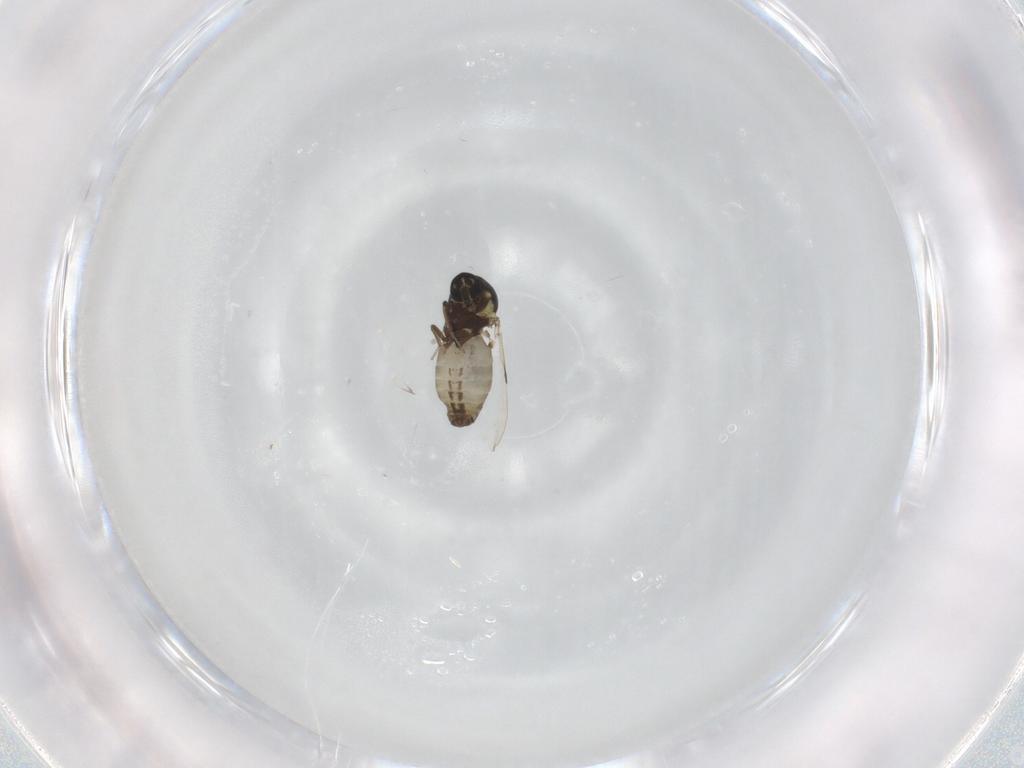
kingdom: Animalia
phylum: Arthropoda
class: Insecta
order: Diptera
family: Ceratopogonidae
